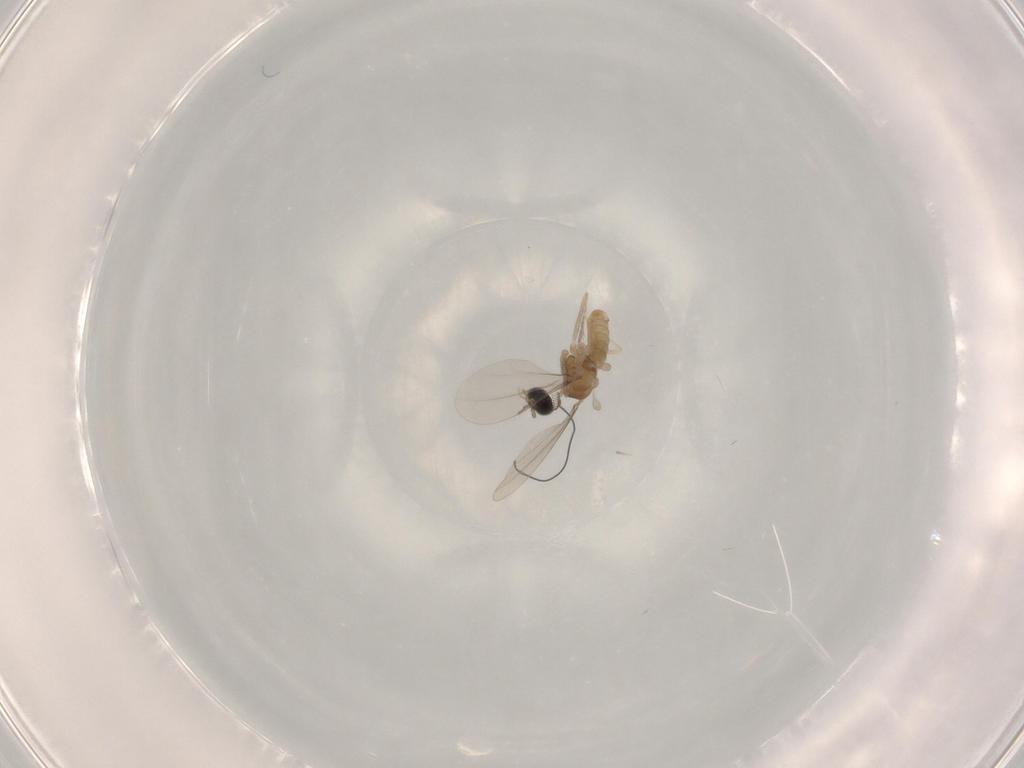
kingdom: Animalia
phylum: Arthropoda
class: Insecta
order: Diptera
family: Cecidomyiidae
